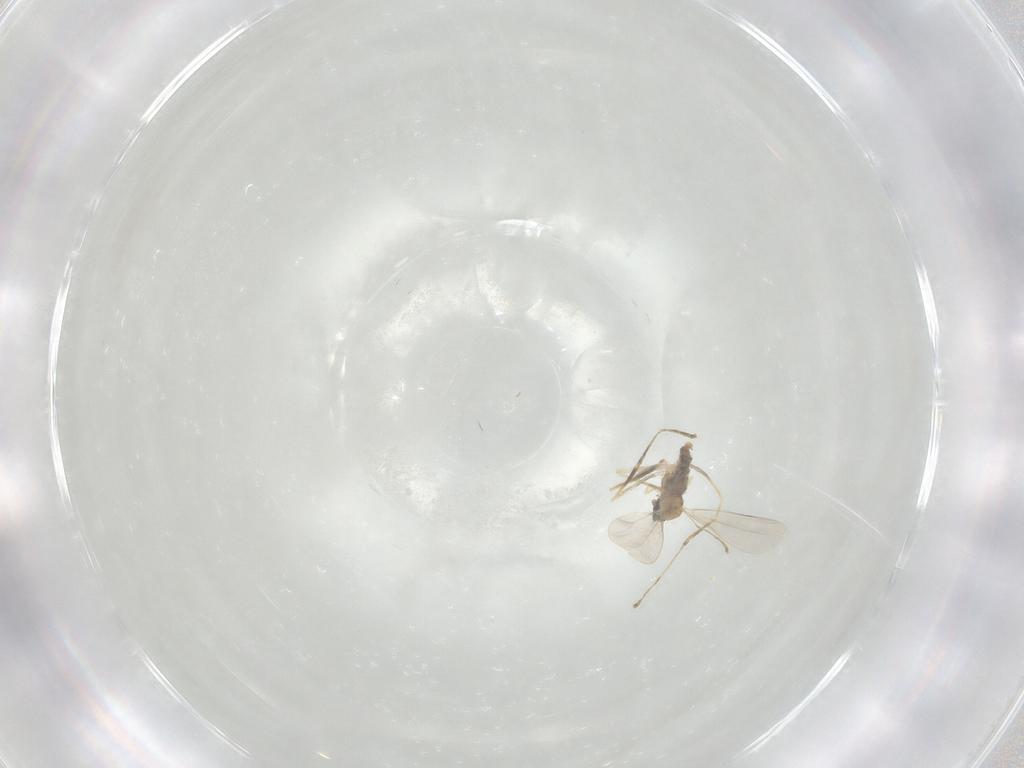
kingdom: Animalia
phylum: Arthropoda
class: Insecta
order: Diptera
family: Cecidomyiidae
